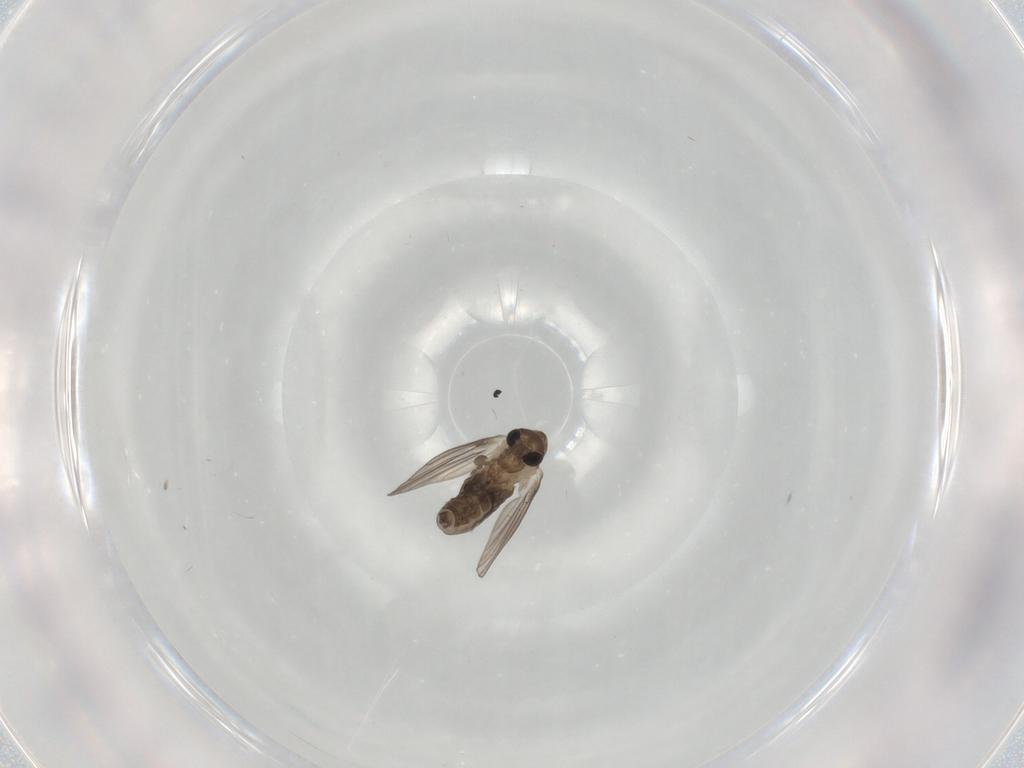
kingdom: Animalia
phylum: Arthropoda
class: Insecta
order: Diptera
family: Psychodidae
